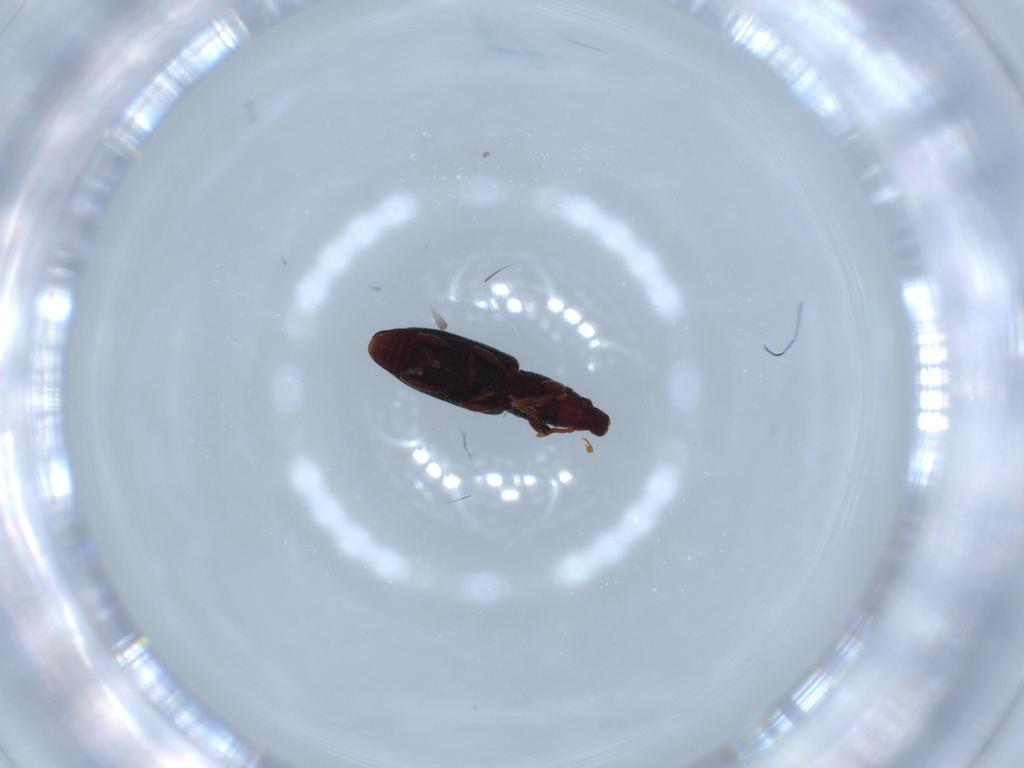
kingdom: Animalia
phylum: Arthropoda
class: Insecta
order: Coleoptera
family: Curculionidae
